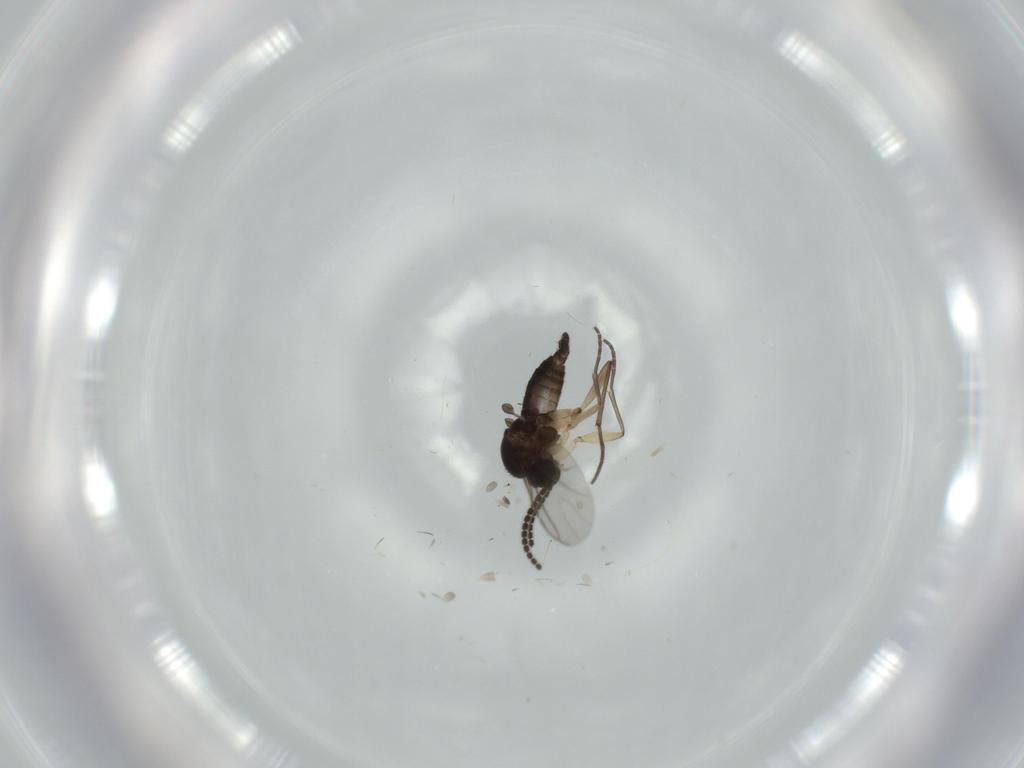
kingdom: Animalia
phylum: Arthropoda
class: Insecta
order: Diptera
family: Sciaridae
